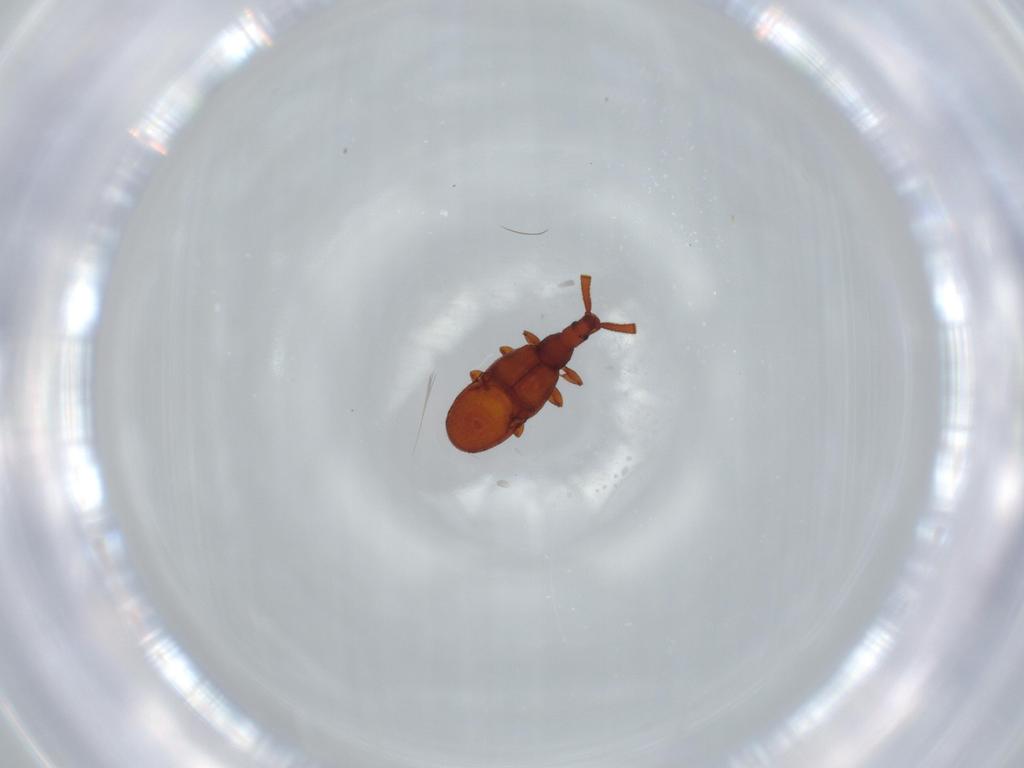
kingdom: Animalia
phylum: Arthropoda
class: Insecta
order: Coleoptera
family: Staphylinidae
